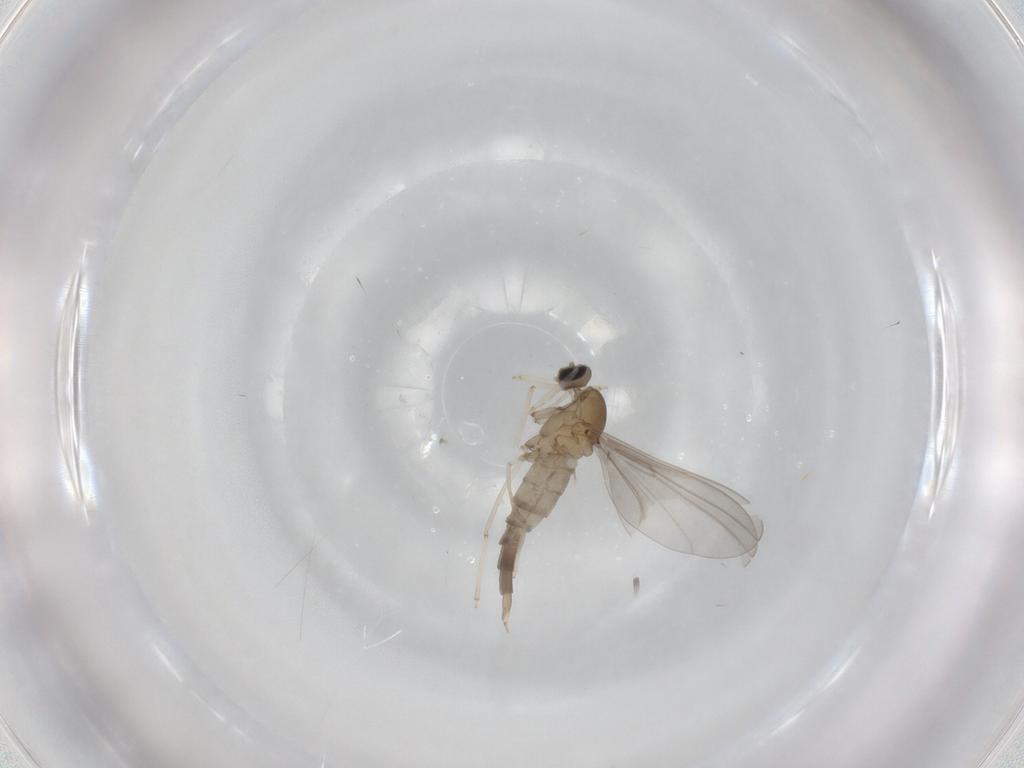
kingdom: Animalia
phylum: Arthropoda
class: Insecta
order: Diptera
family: Cecidomyiidae
